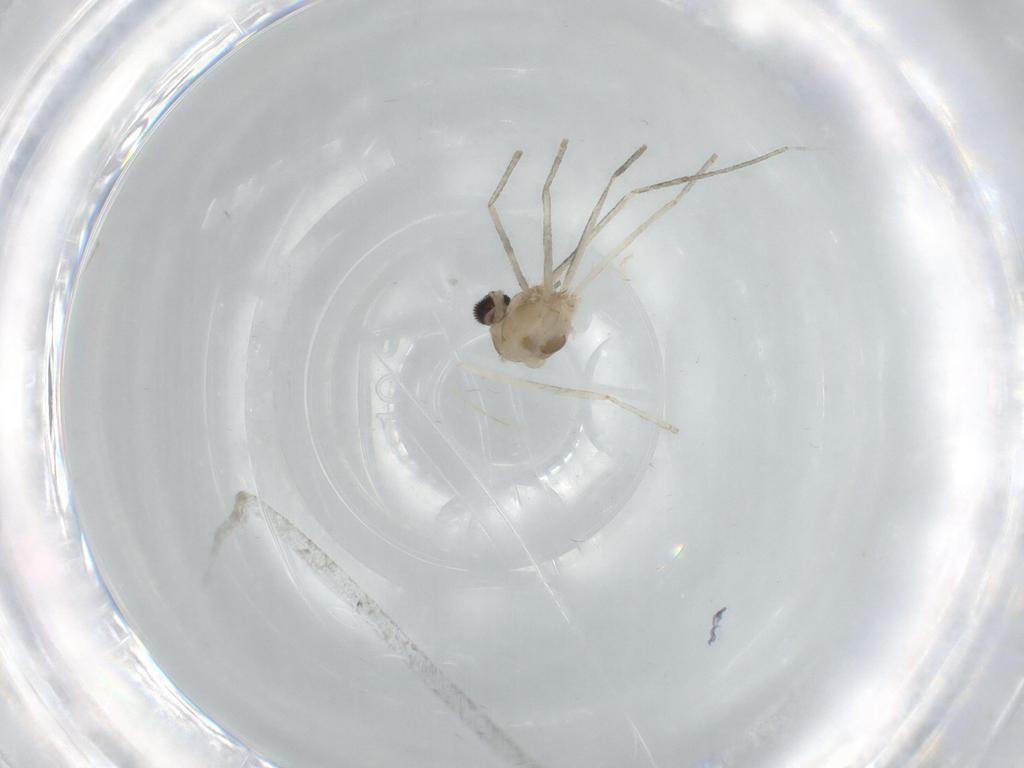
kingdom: Animalia
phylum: Arthropoda
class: Insecta
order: Diptera
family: Cecidomyiidae
